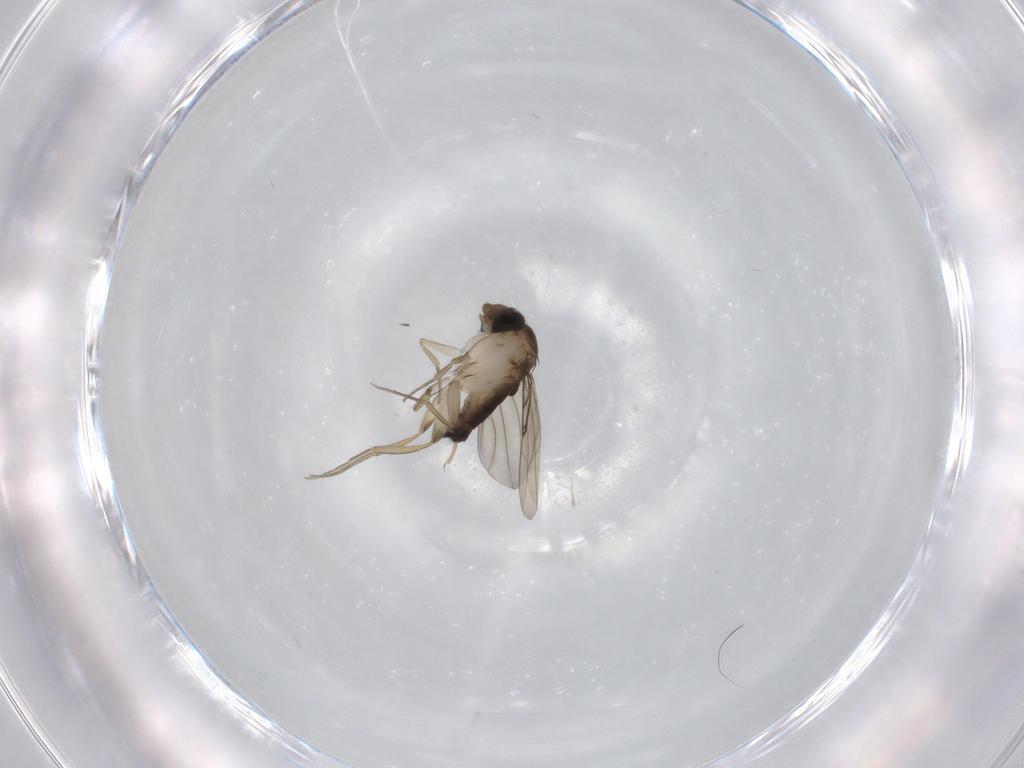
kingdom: Animalia
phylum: Arthropoda
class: Insecta
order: Diptera
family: Phoridae
